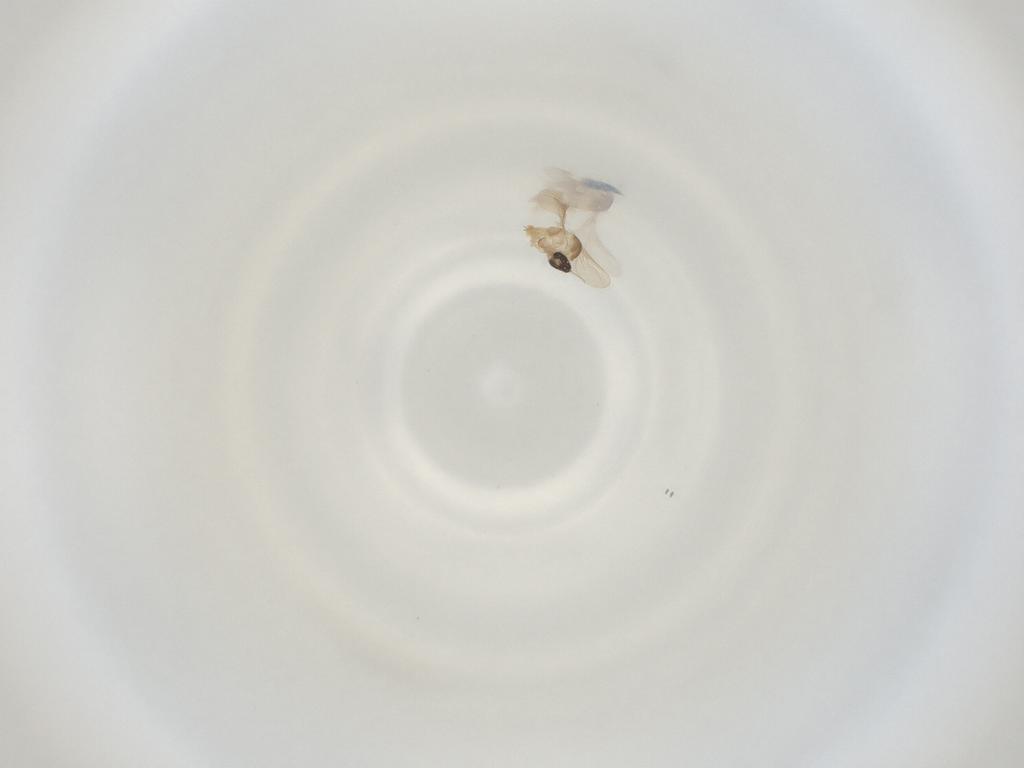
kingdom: Animalia
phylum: Arthropoda
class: Insecta
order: Diptera
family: Cecidomyiidae
